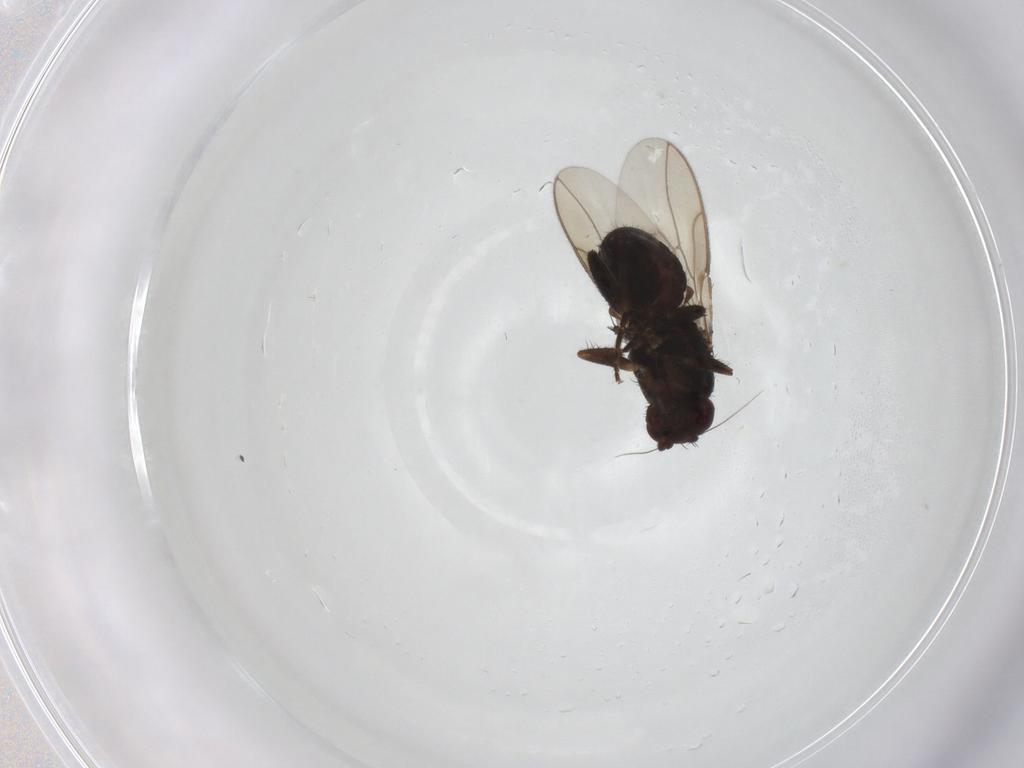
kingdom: Animalia
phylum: Arthropoda
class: Insecta
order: Diptera
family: Sphaeroceridae
